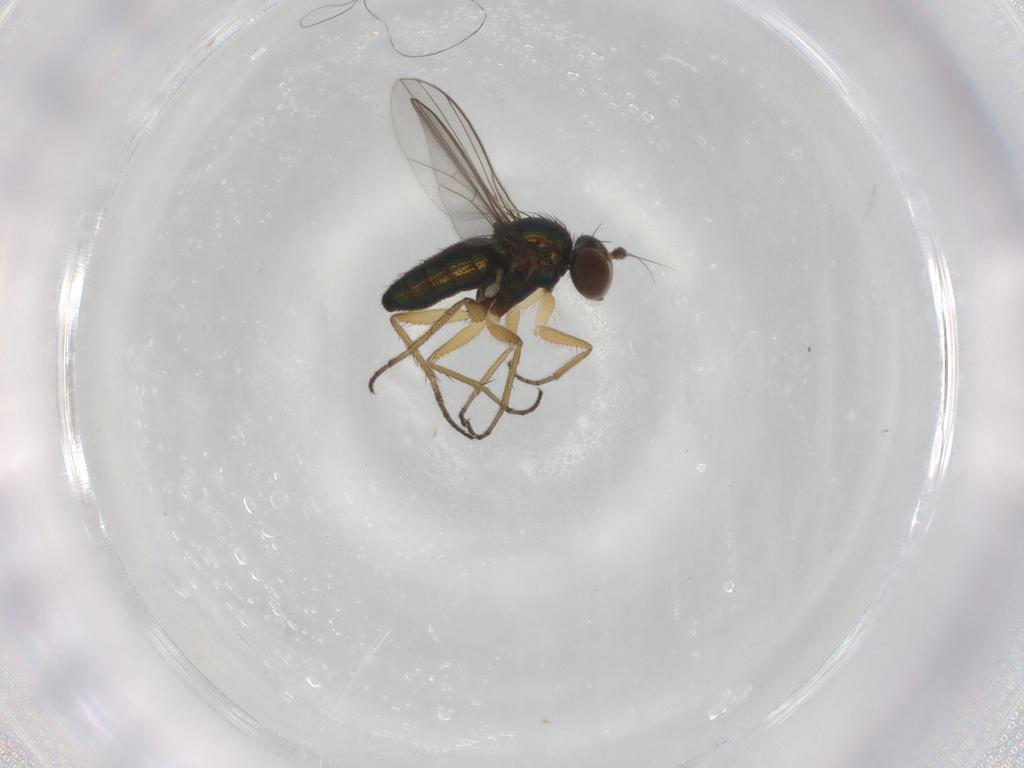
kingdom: Animalia
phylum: Arthropoda
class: Insecta
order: Diptera
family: Dolichopodidae
